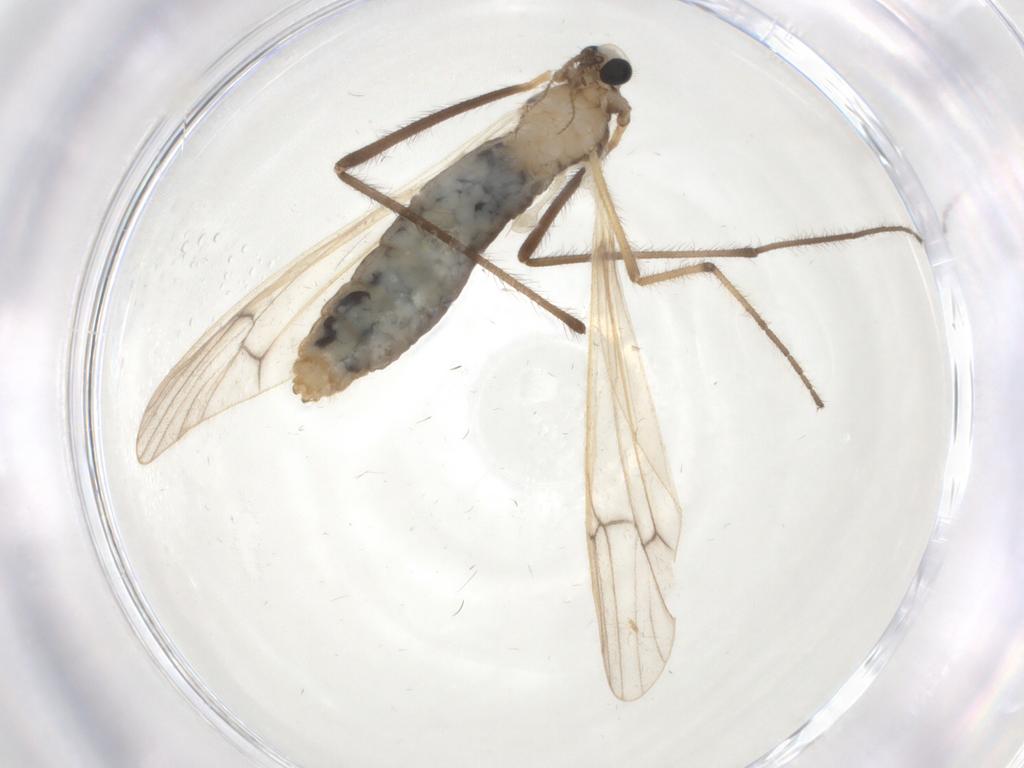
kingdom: Animalia
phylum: Arthropoda
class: Insecta
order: Diptera
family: Limoniidae
